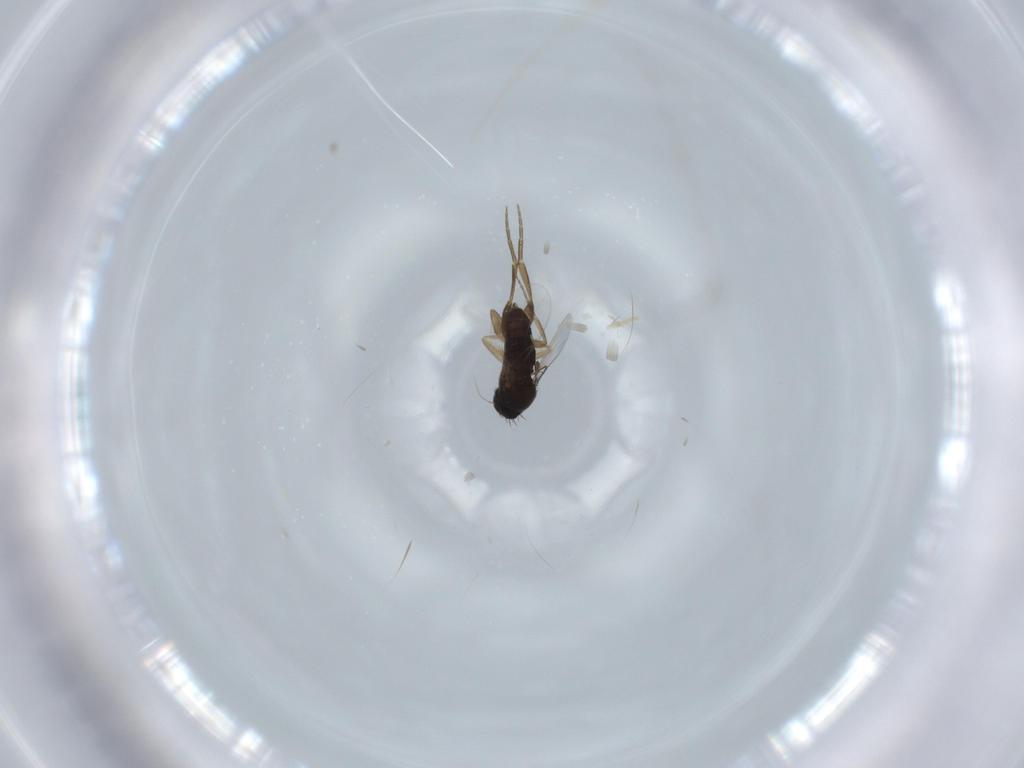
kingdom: Animalia
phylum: Arthropoda
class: Insecta
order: Diptera
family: Phoridae
